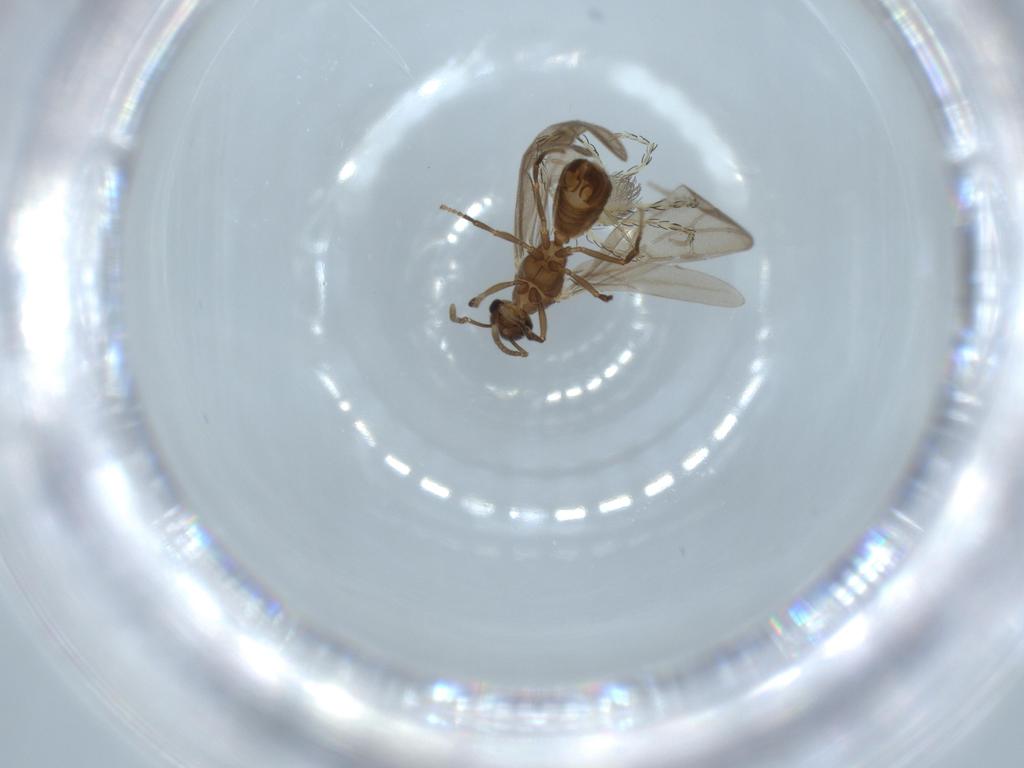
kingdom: Animalia
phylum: Arthropoda
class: Insecta
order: Hymenoptera
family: Formicidae
